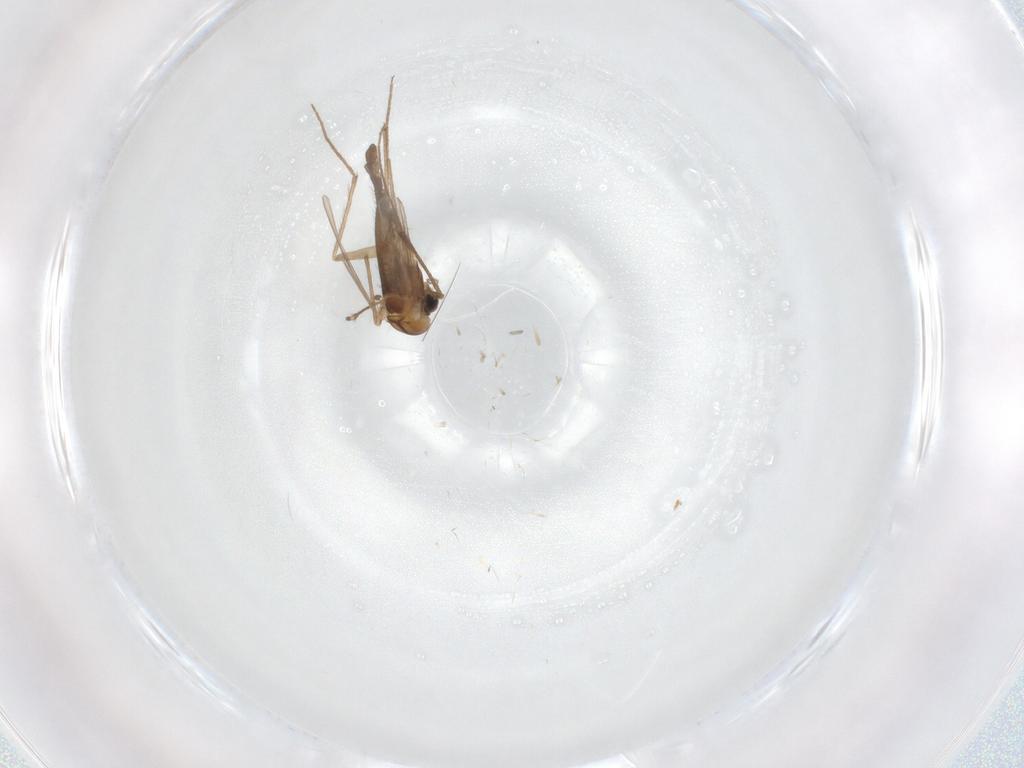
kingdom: Animalia
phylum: Arthropoda
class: Insecta
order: Diptera
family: Chironomidae
